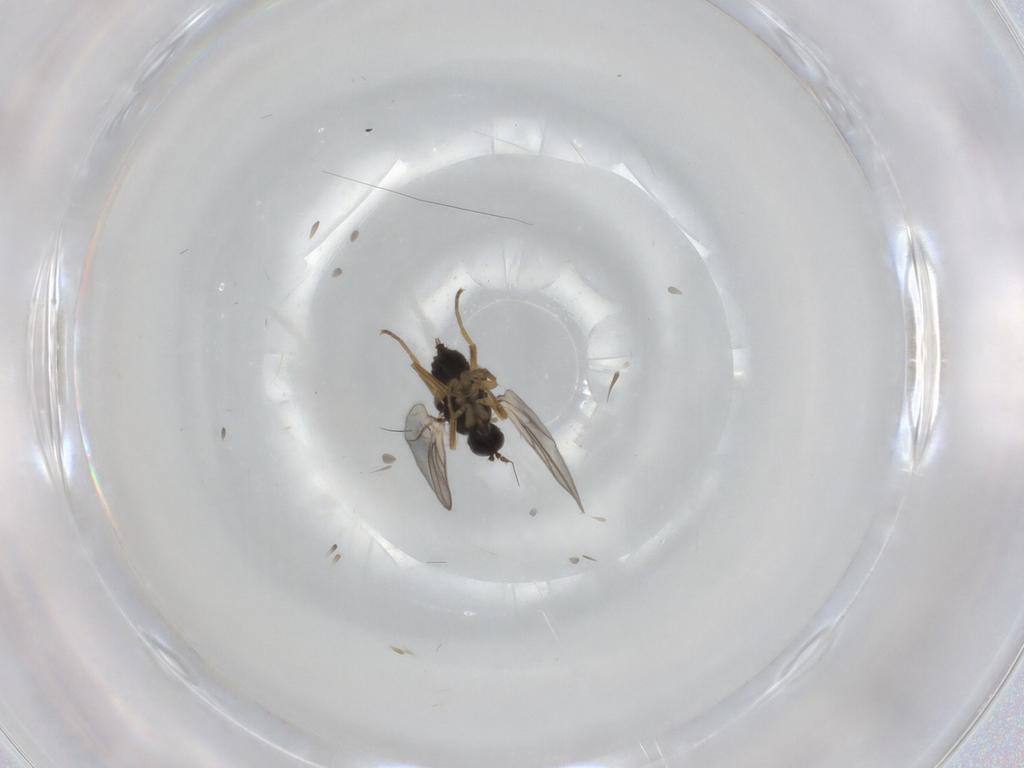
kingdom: Animalia
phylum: Arthropoda
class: Insecta
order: Diptera
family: Hybotidae
